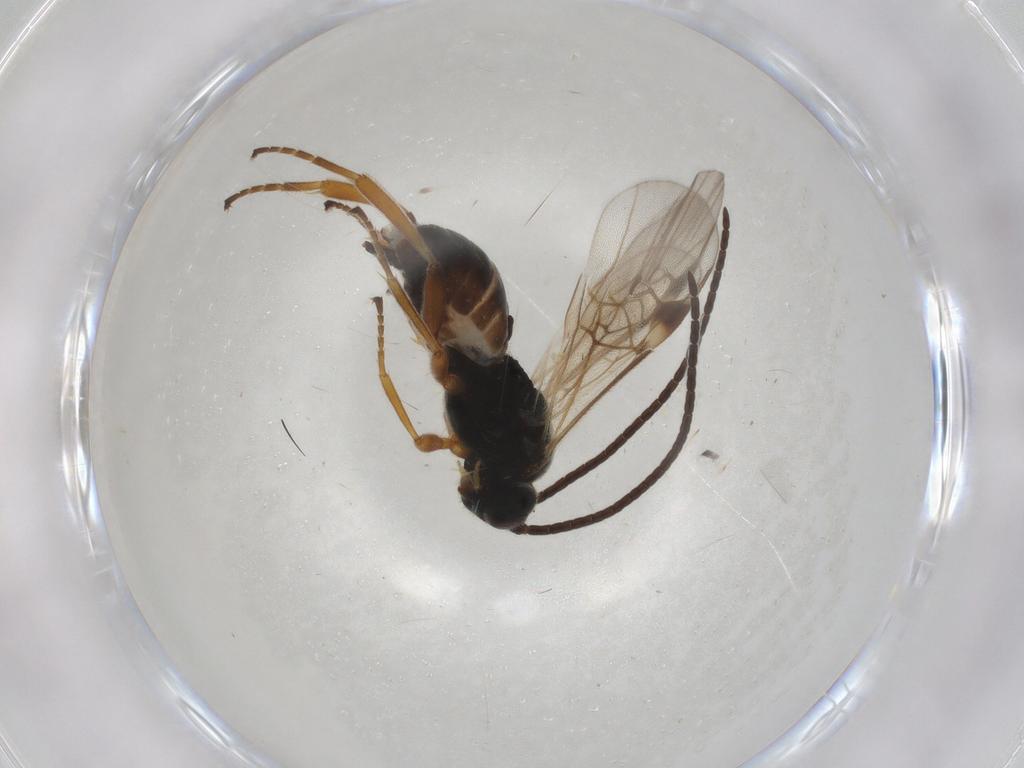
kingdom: Animalia
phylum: Arthropoda
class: Insecta
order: Hymenoptera
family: Braconidae
